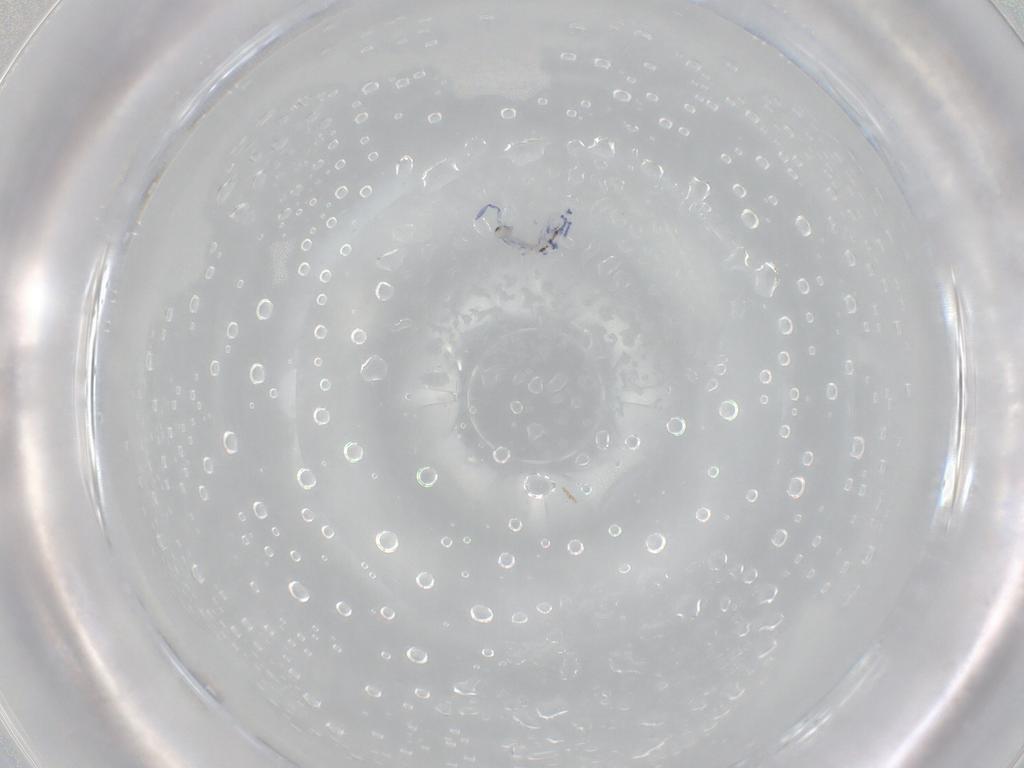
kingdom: Animalia
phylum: Arthropoda
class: Collembola
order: Entomobryomorpha
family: Entomobryidae
